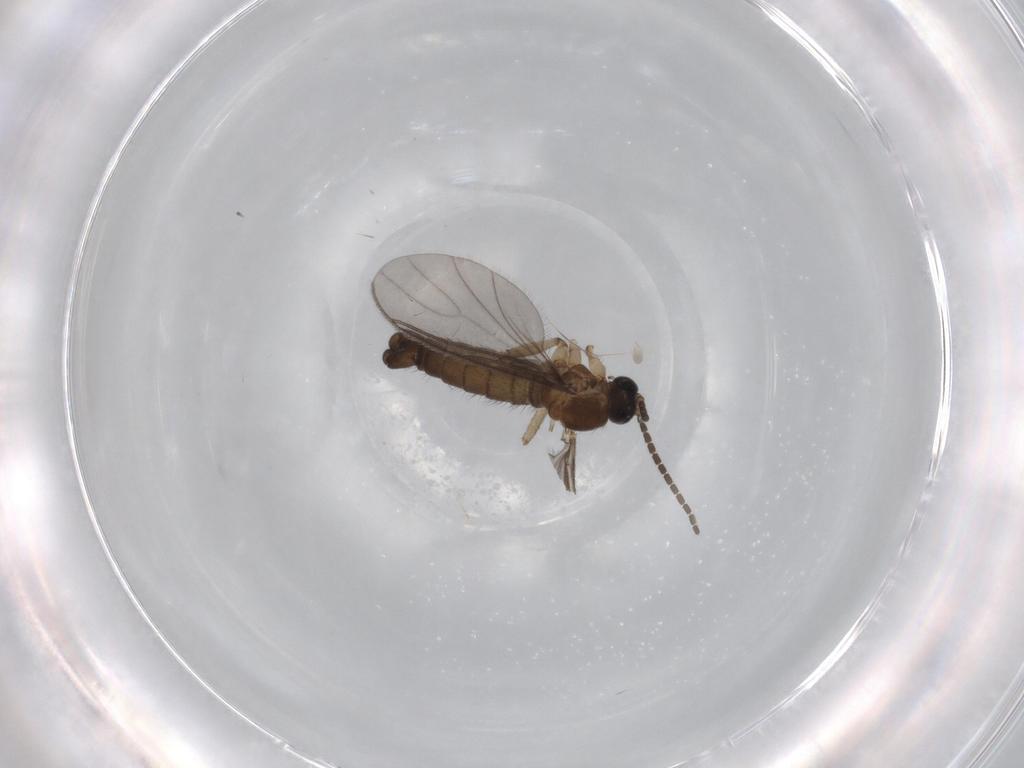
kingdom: Animalia
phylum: Arthropoda
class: Insecta
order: Diptera
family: Sciaridae
